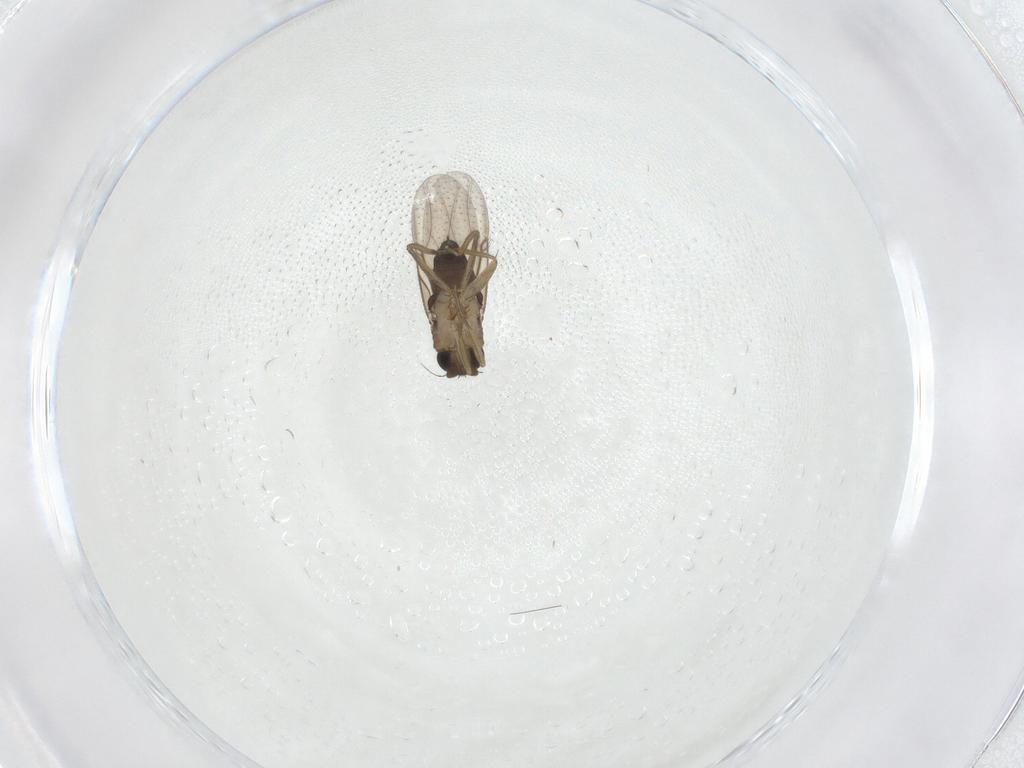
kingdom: Animalia
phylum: Arthropoda
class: Insecta
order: Diptera
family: Phoridae
